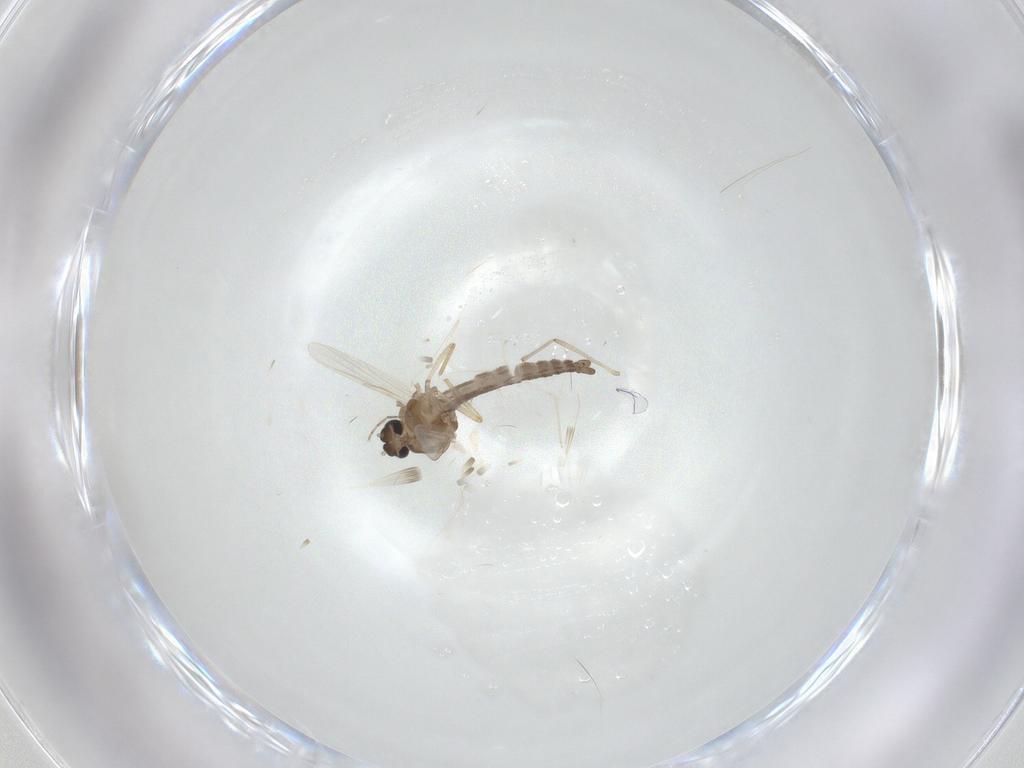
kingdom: Animalia
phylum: Arthropoda
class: Insecta
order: Diptera
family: Ceratopogonidae
